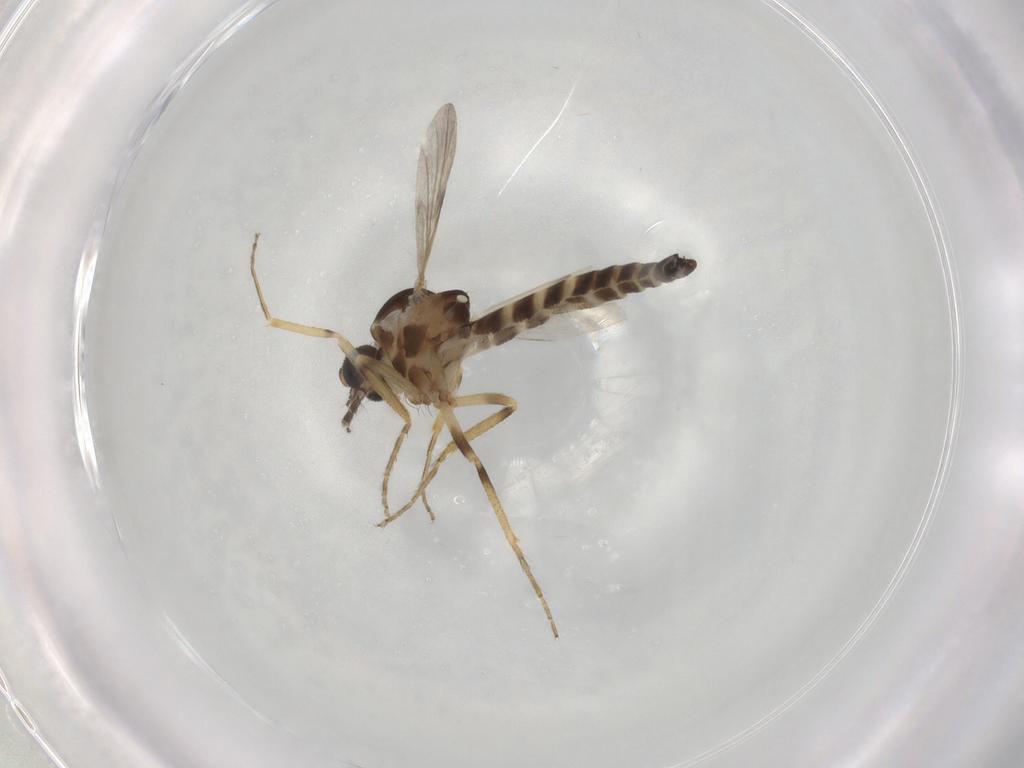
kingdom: Animalia
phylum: Arthropoda
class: Insecta
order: Diptera
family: Ceratopogonidae
